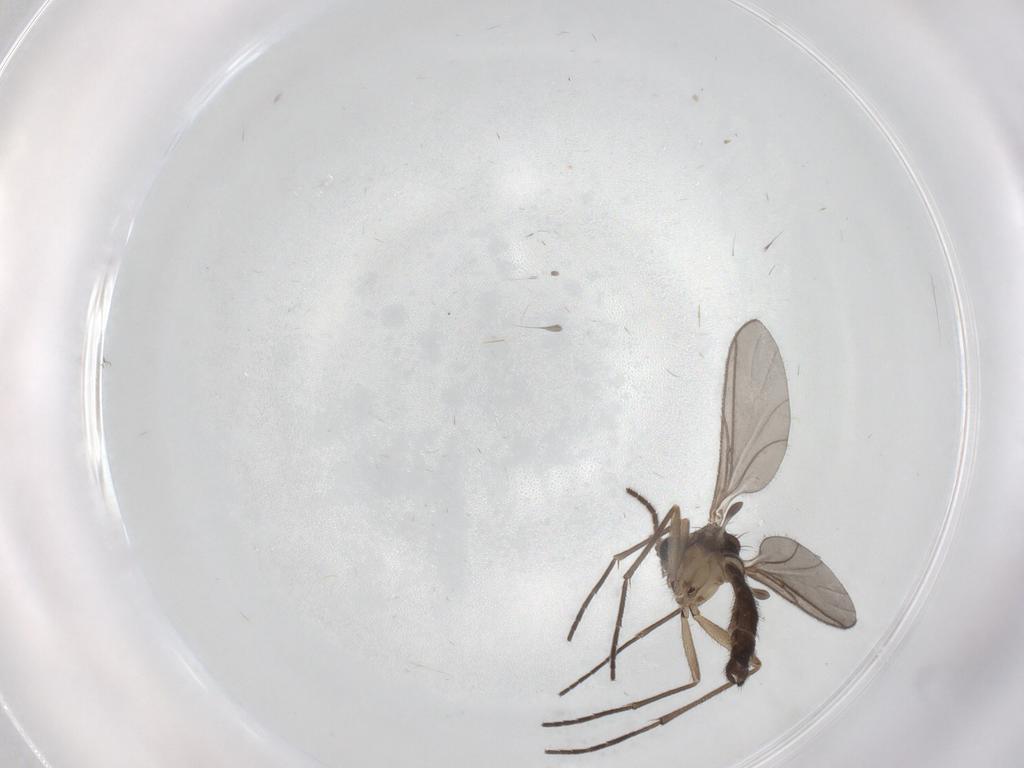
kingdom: Animalia
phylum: Arthropoda
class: Insecta
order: Diptera
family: Sciaridae
